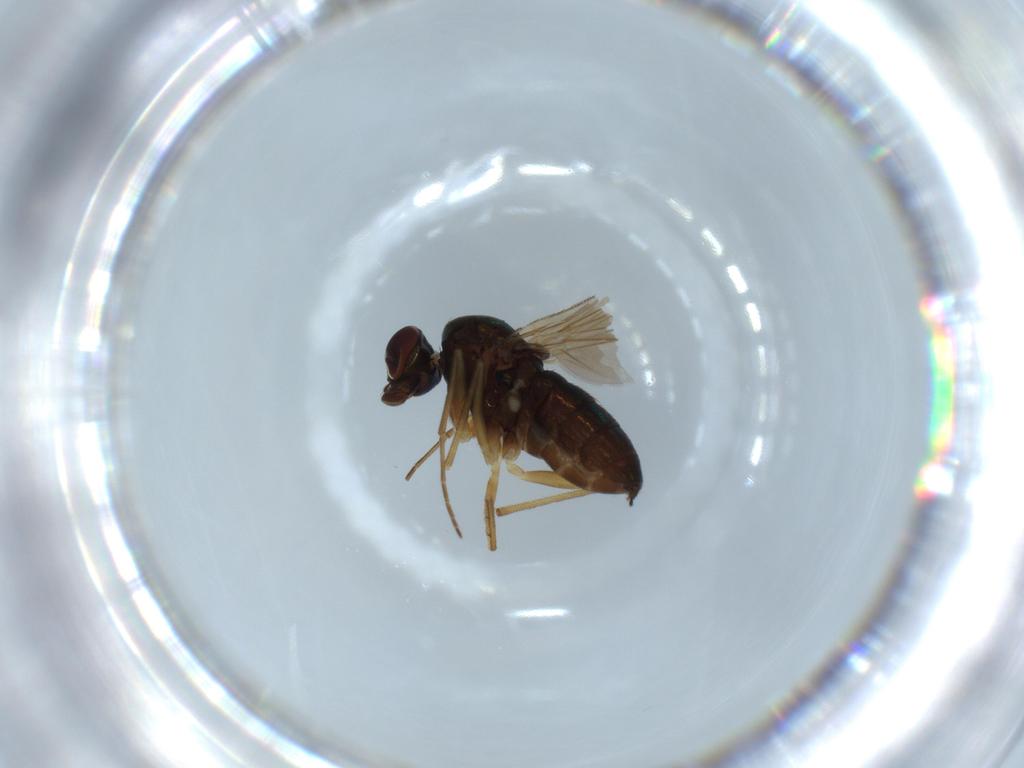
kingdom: Animalia
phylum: Arthropoda
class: Insecta
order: Diptera
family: Dolichopodidae
